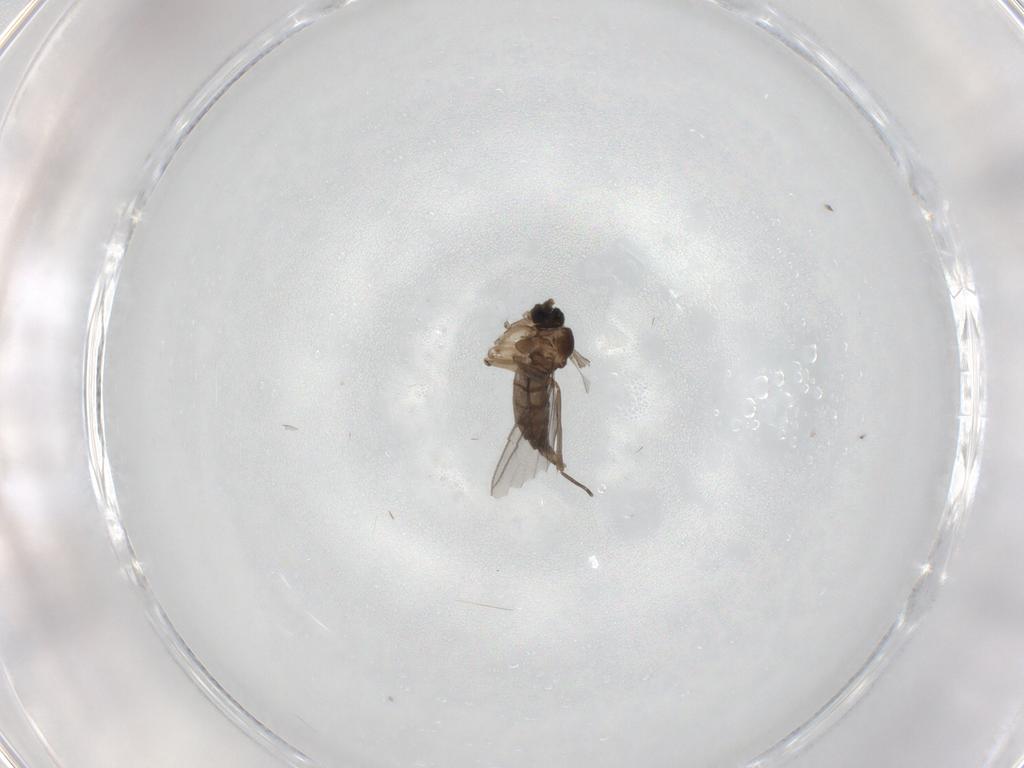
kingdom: Animalia
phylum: Arthropoda
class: Insecta
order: Diptera
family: Sciaridae
